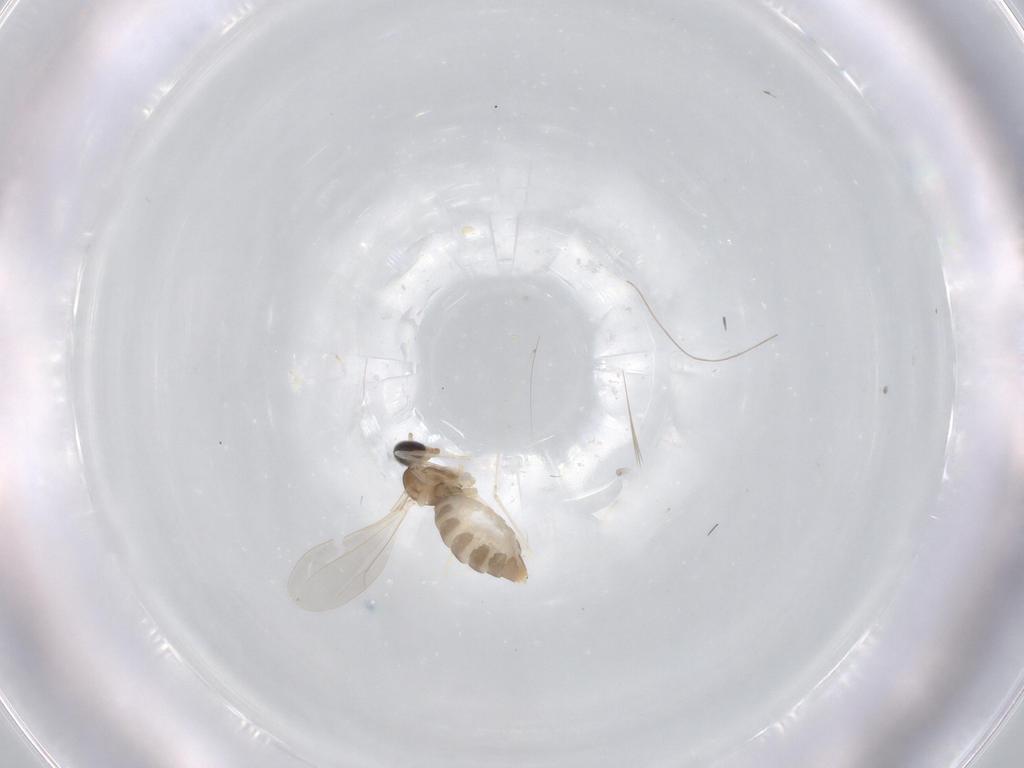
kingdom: Animalia
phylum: Arthropoda
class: Insecta
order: Diptera
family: Cecidomyiidae
